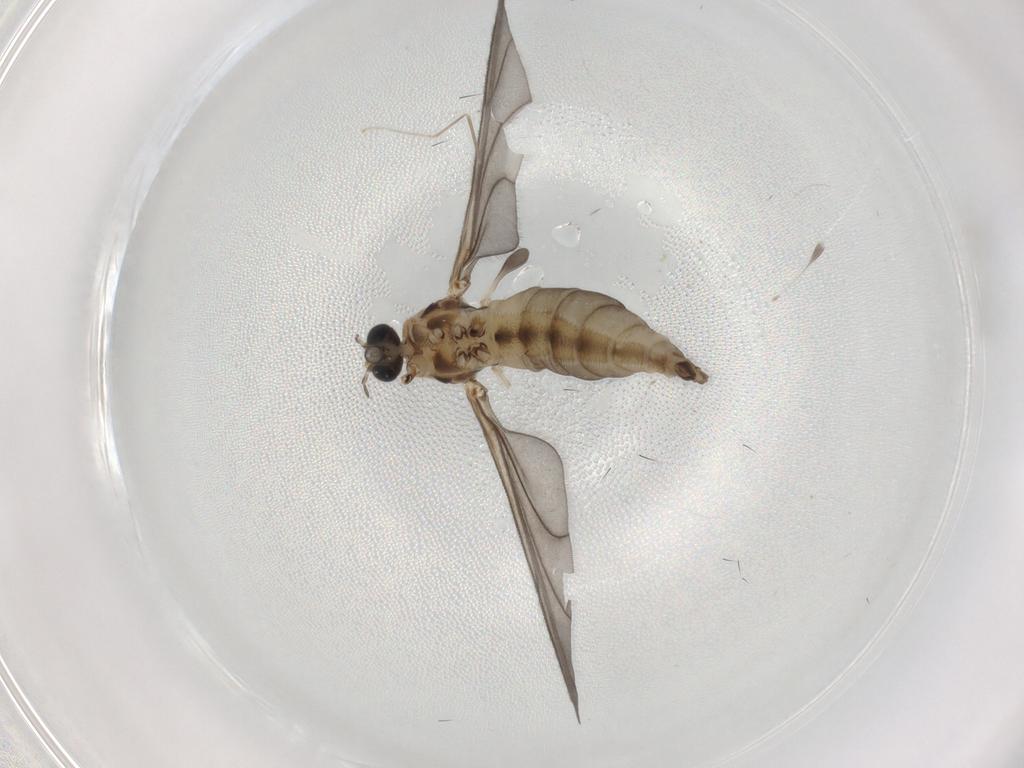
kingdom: Animalia
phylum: Arthropoda
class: Insecta
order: Diptera
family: Sciaridae
